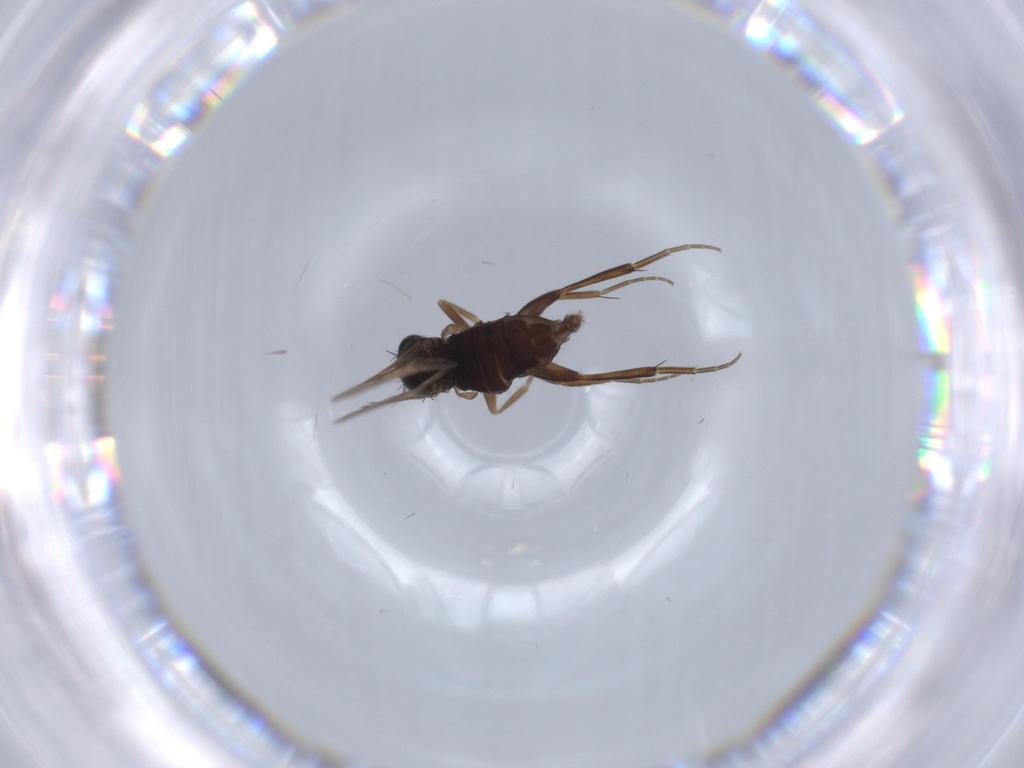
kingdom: Animalia
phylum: Arthropoda
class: Insecta
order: Diptera
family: Phoridae
